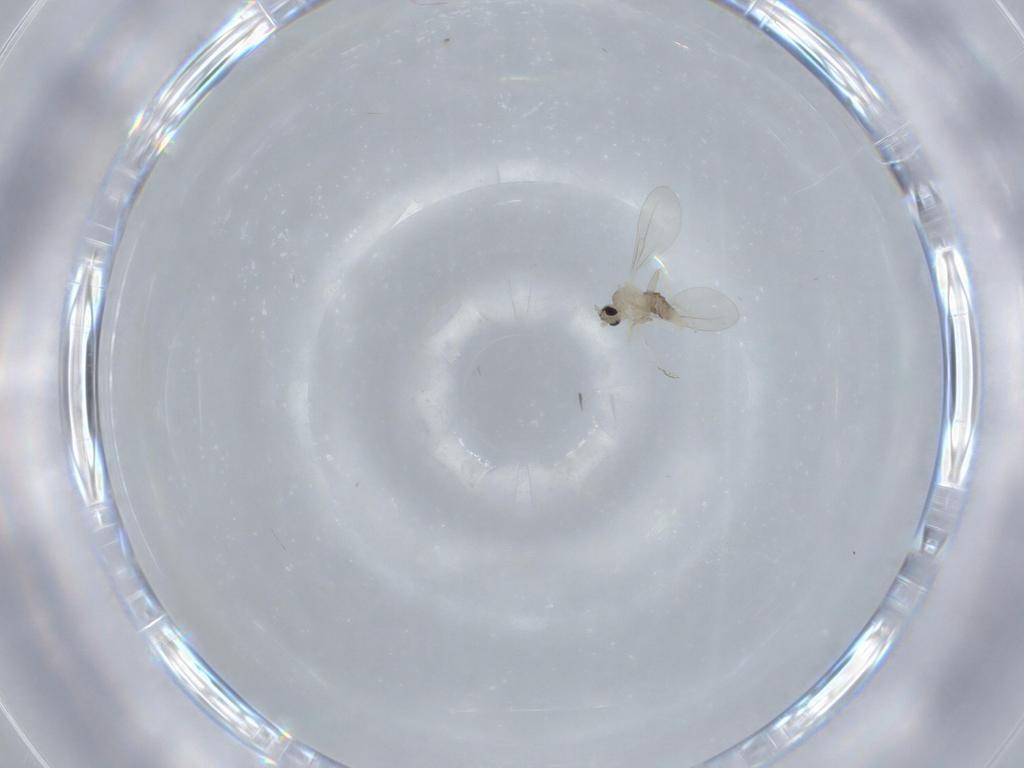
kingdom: Animalia
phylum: Arthropoda
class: Insecta
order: Diptera
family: Cecidomyiidae
